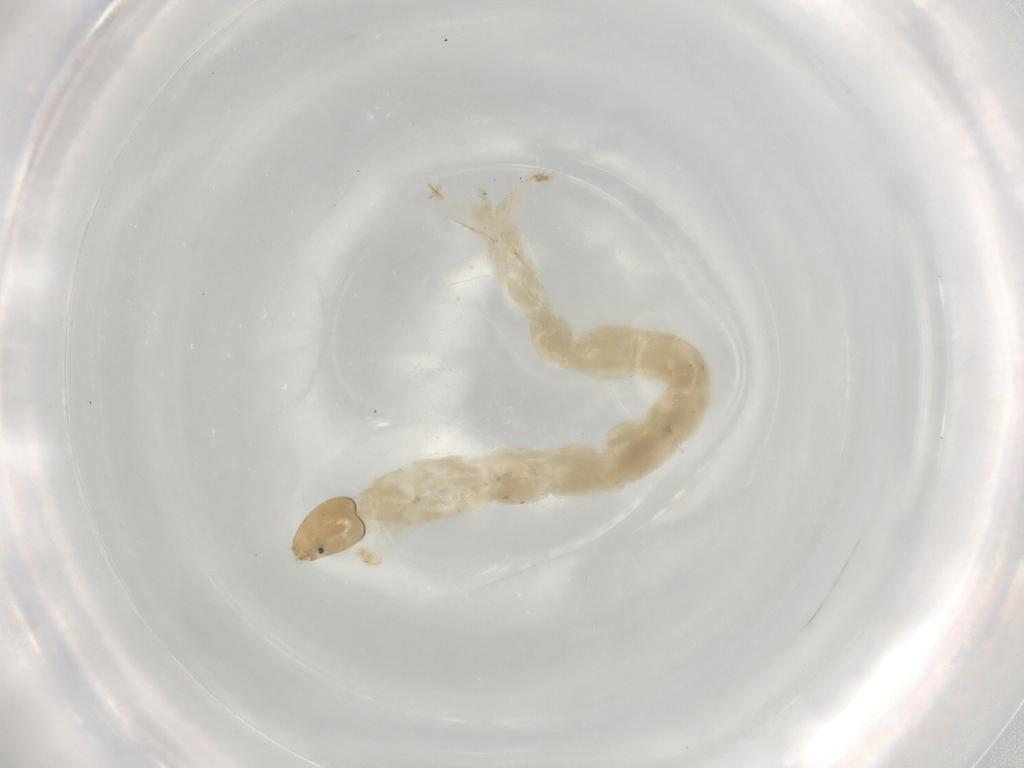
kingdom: Animalia
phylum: Arthropoda
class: Insecta
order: Diptera
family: Chironomidae
